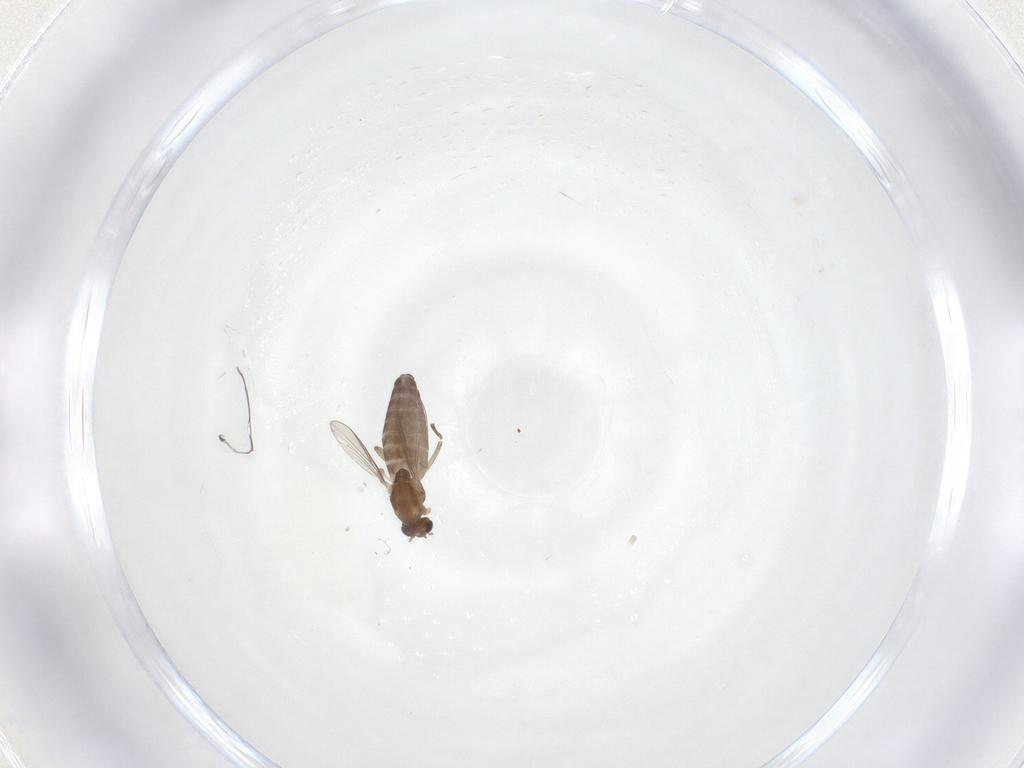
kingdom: Animalia
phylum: Arthropoda
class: Insecta
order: Diptera
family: Chironomidae
